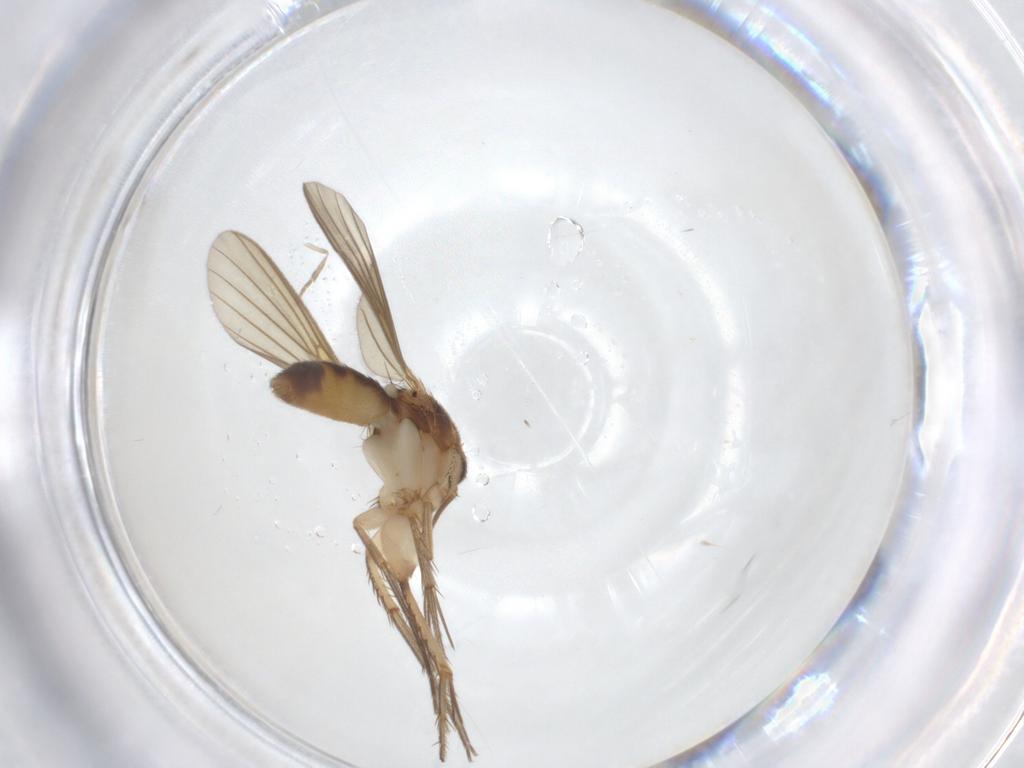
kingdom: Animalia
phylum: Arthropoda
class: Insecta
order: Diptera
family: Mycetophilidae
